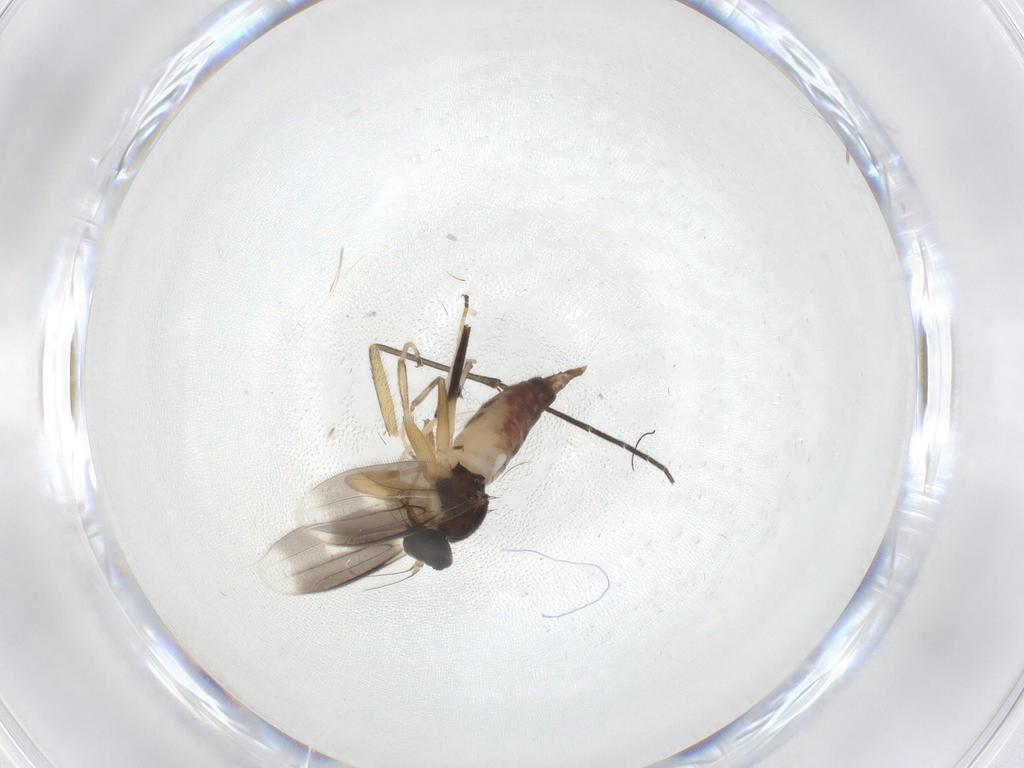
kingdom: Animalia
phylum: Arthropoda
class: Insecta
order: Diptera
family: Sciaridae
